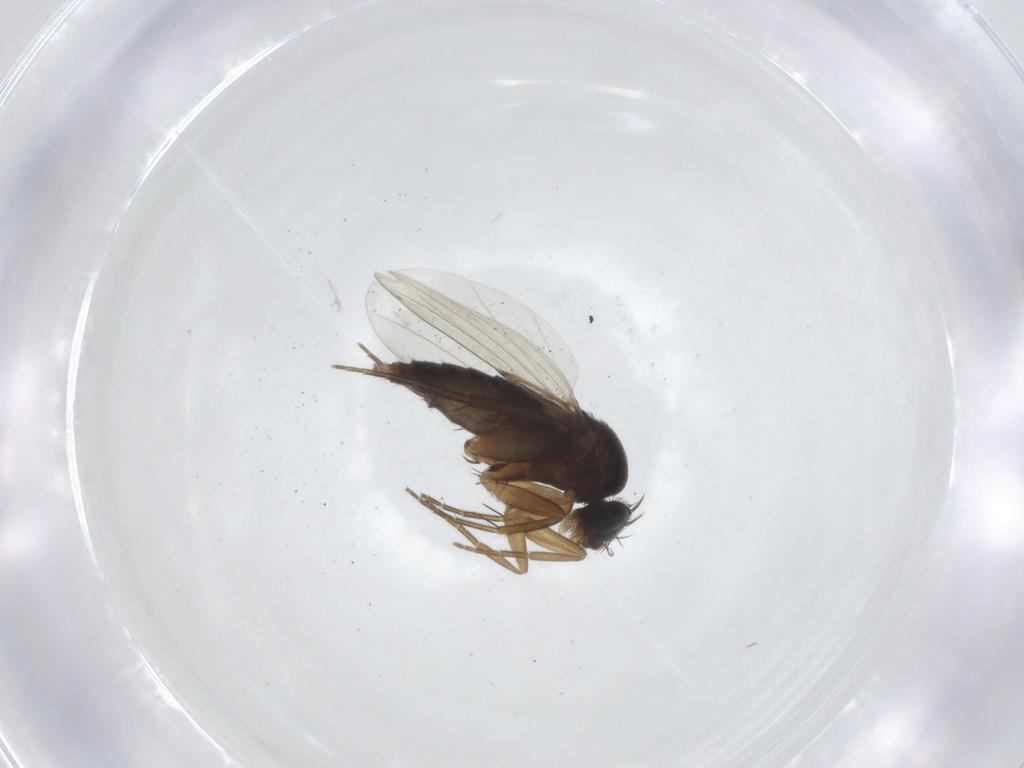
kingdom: Animalia
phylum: Arthropoda
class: Insecta
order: Diptera
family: Phoridae
